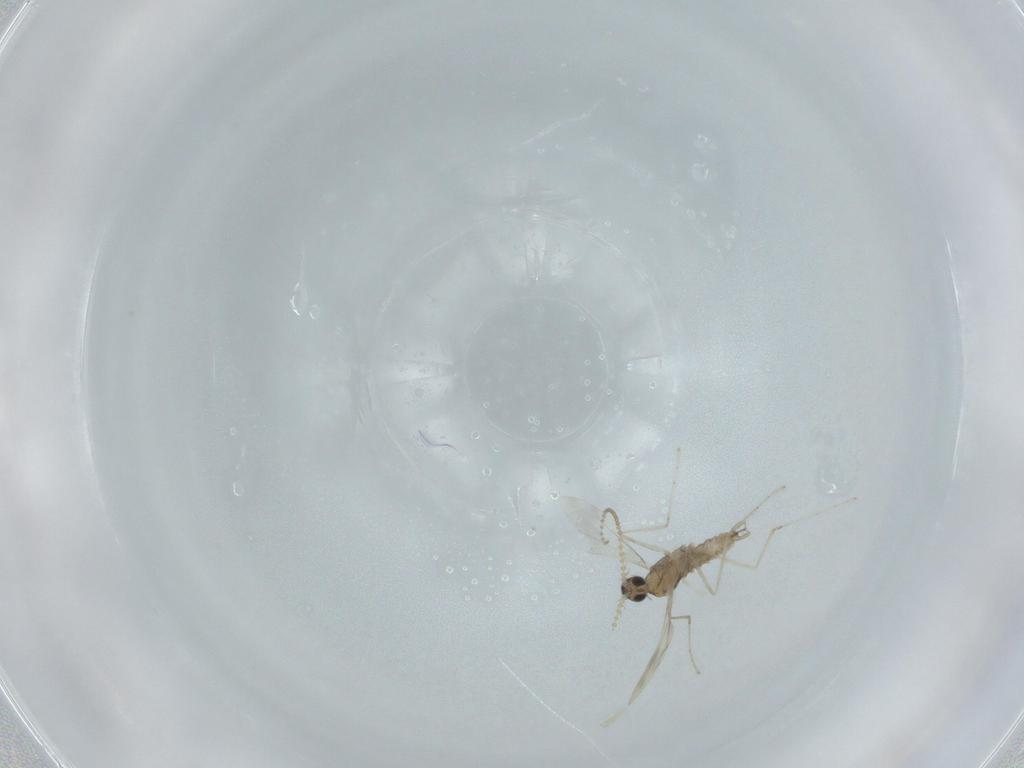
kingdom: Animalia
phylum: Arthropoda
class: Insecta
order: Diptera
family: Cecidomyiidae
